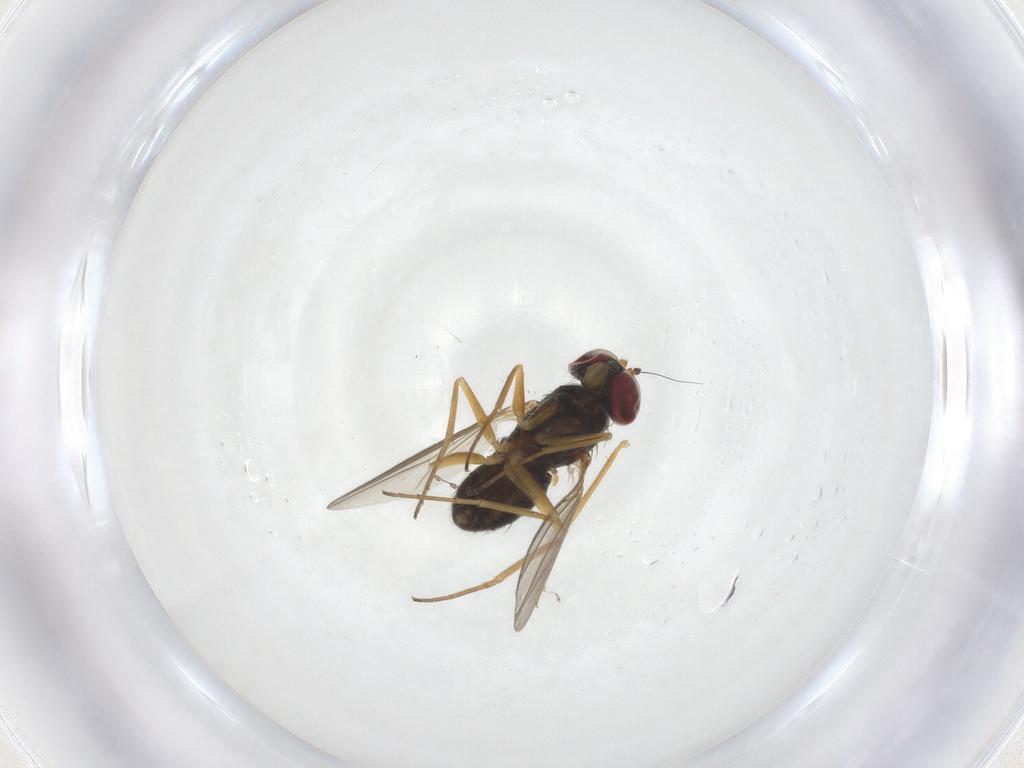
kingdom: Animalia
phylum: Arthropoda
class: Insecta
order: Diptera
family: Dolichopodidae
